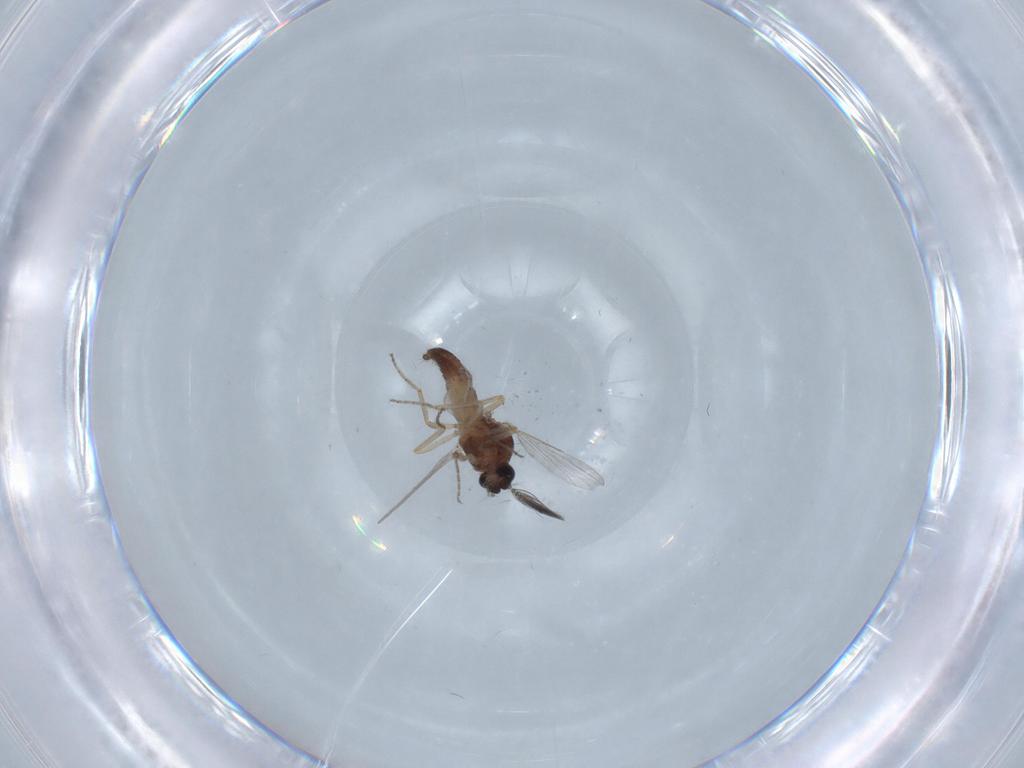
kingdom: Animalia
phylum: Arthropoda
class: Insecta
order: Diptera
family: Ceratopogonidae
